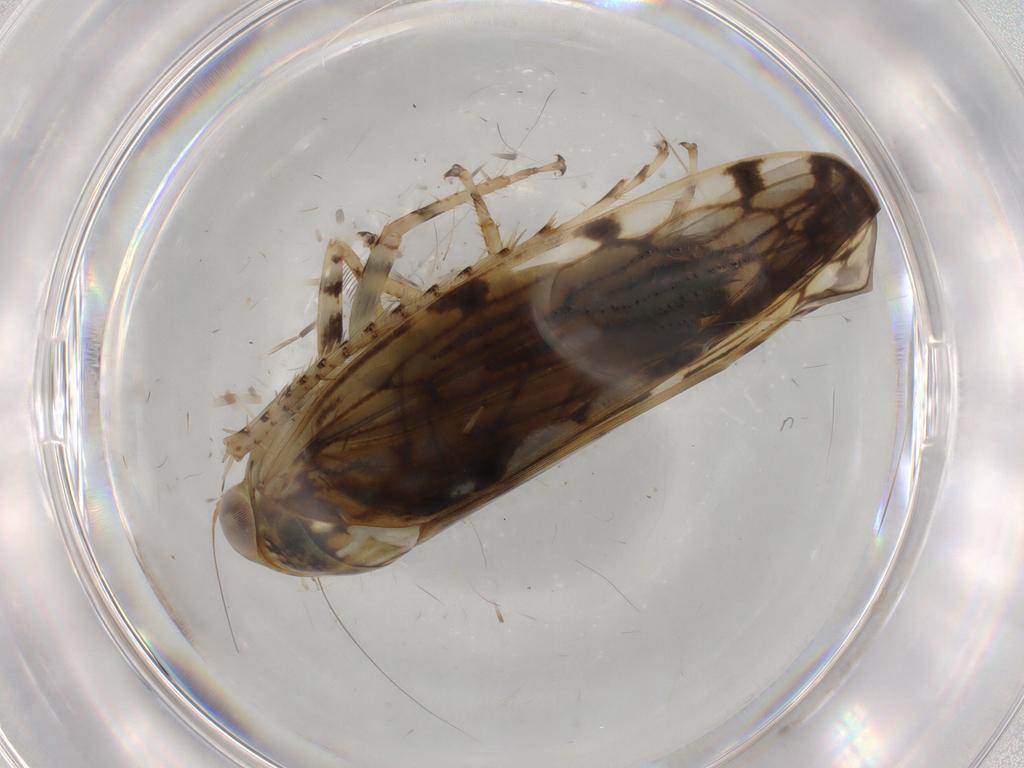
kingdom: Animalia
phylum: Arthropoda
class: Insecta
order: Hemiptera
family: Cicadellidae
